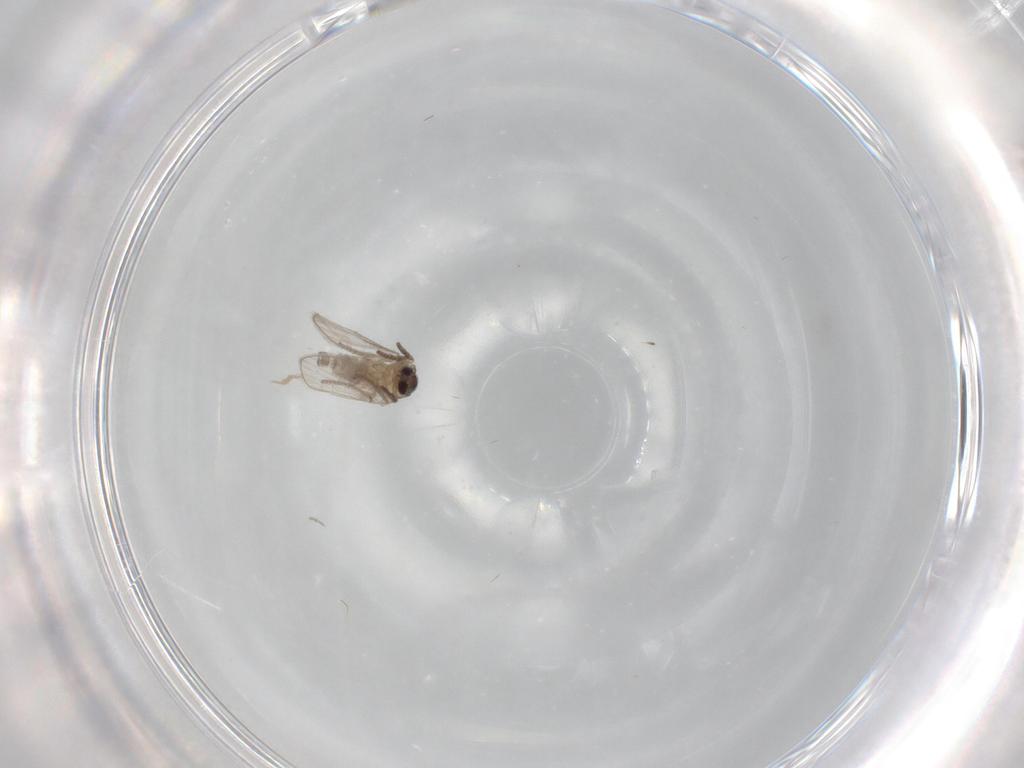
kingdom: Animalia
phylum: Arthropoda
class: Insecta
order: Diptera
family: Psychodidae
